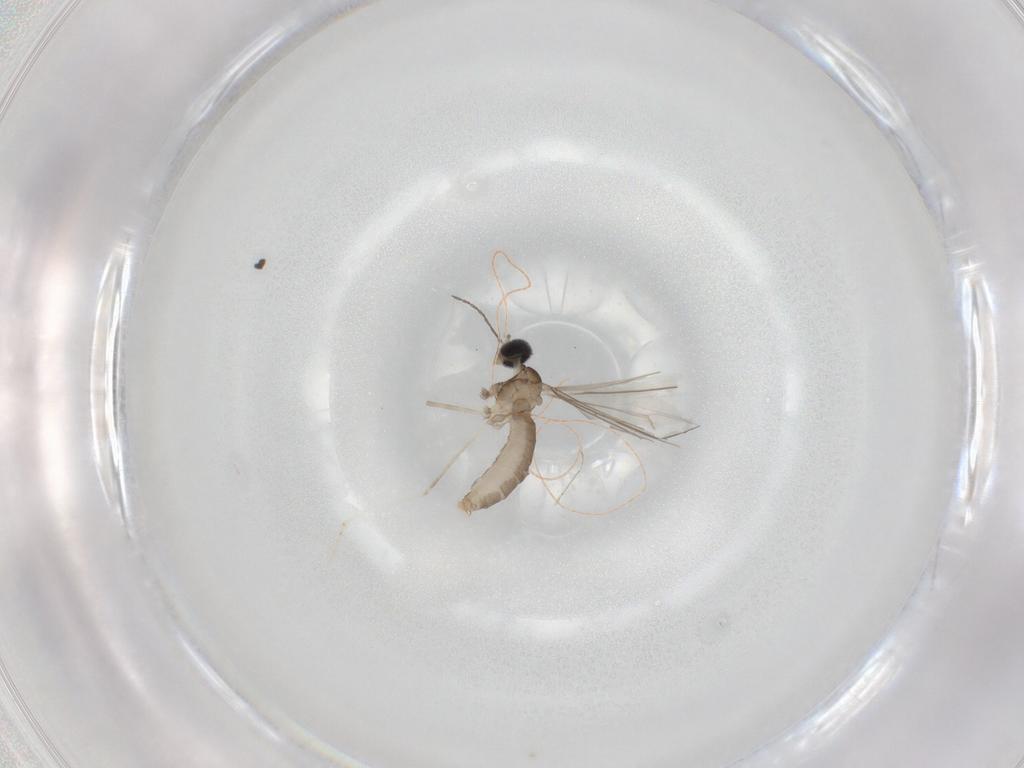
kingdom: Animalia
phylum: Arthropoda
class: Insecta
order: Diptera
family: Cecidomyiidae
